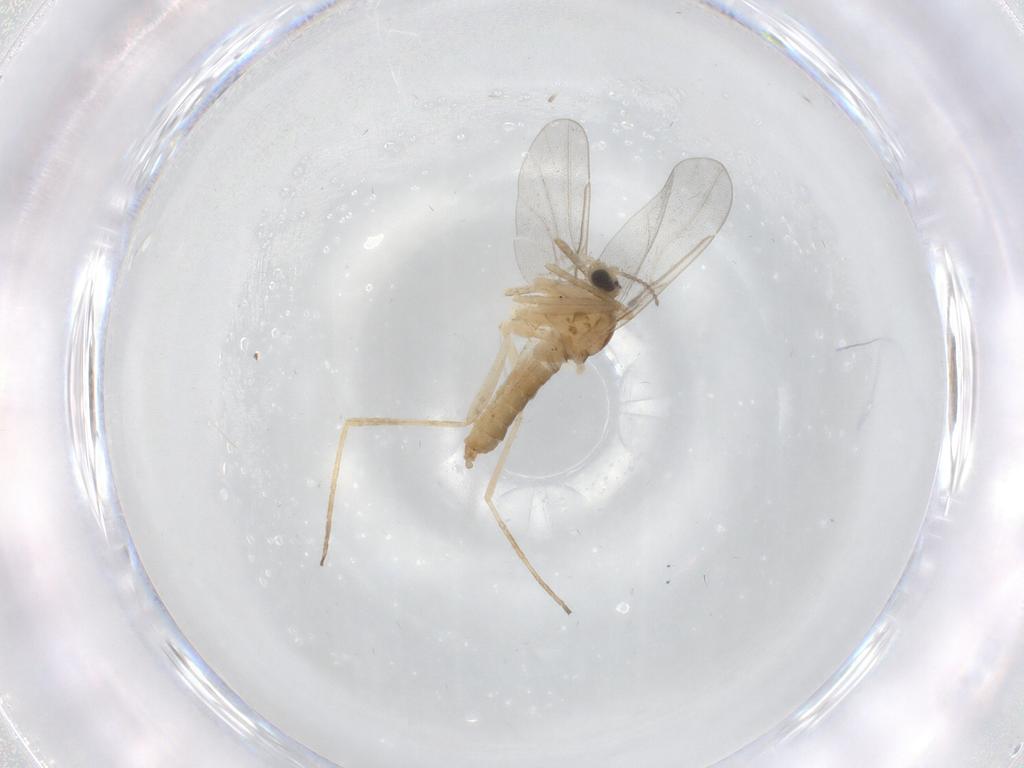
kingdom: Animalia
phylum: Arthropoda
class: Insecta
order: Diptera
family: Cecidomyiidae
